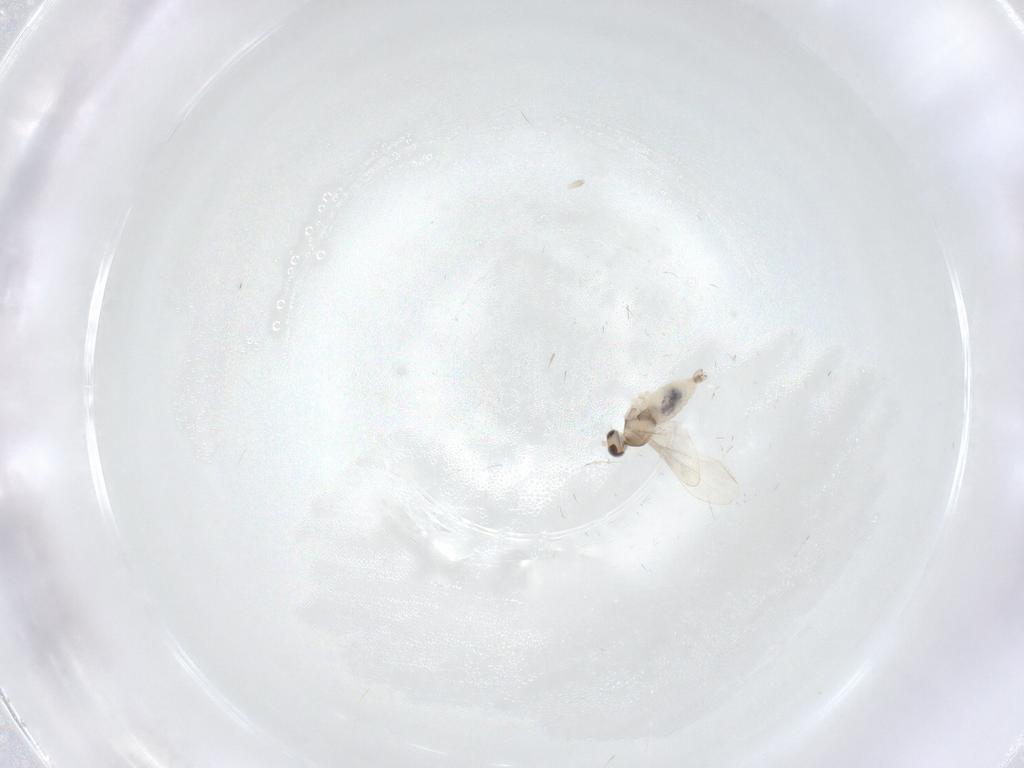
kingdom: Animalia
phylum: Arthropoda
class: Insecta
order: Diptera
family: Cecidomyiidae
